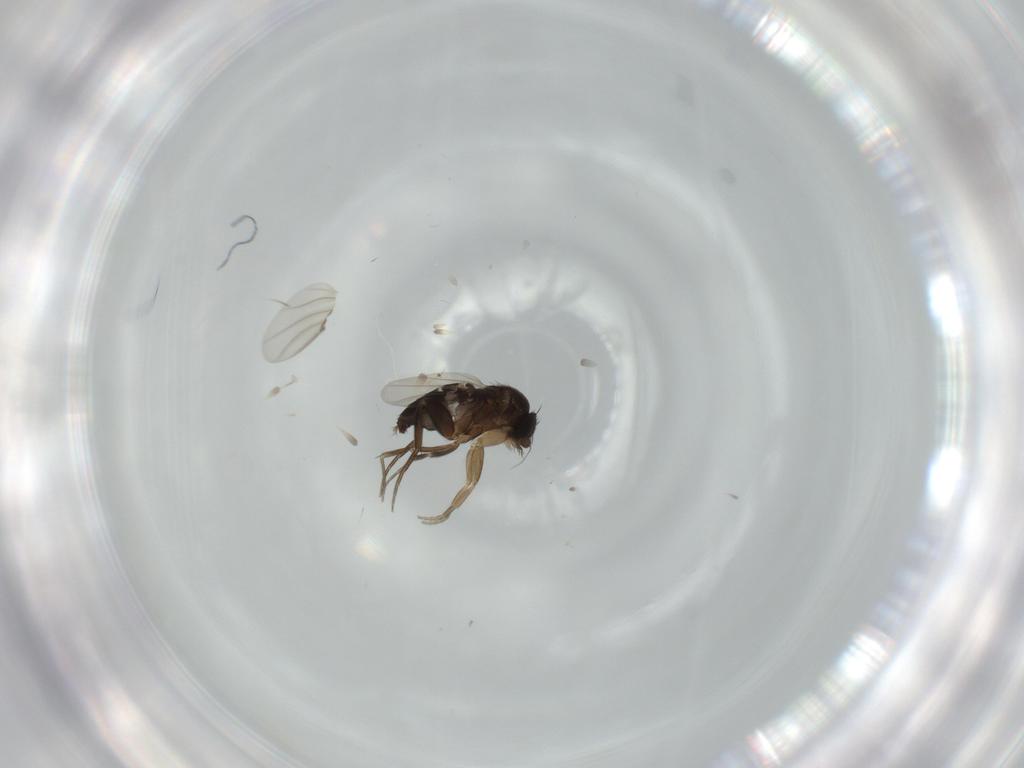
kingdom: Animalia
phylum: Arthropoda
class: Insecta
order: Diptera
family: Phoridae
